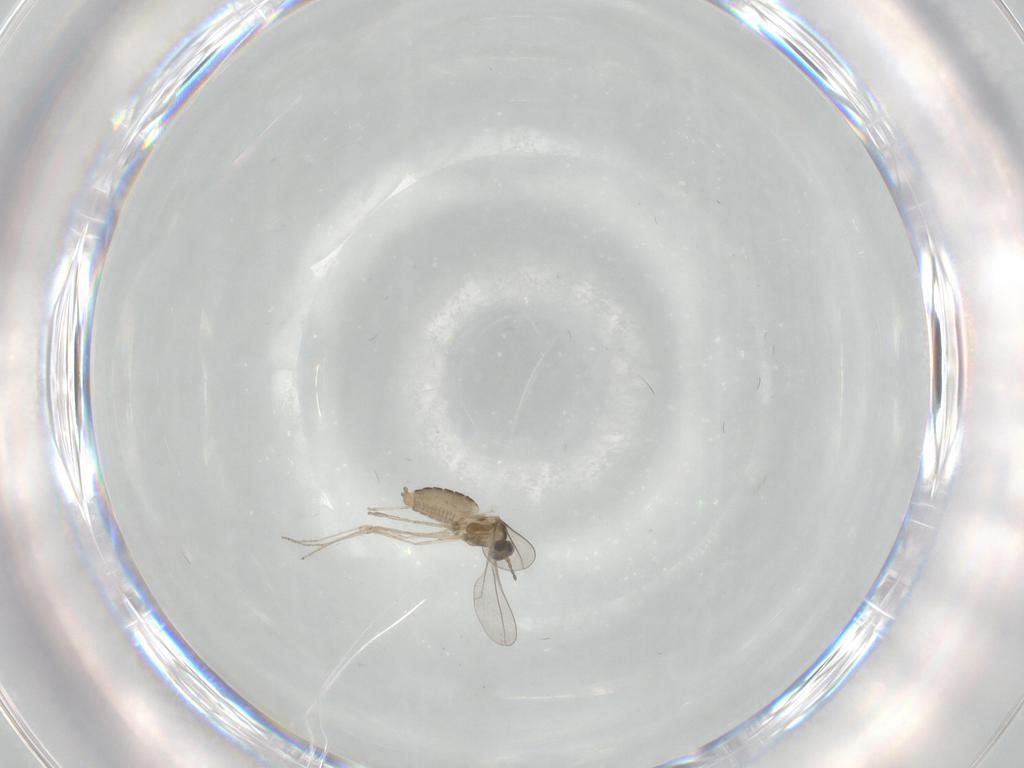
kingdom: Animalia
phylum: Arthropoda
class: Insecta
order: Diptera
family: Cecidomyiidae
